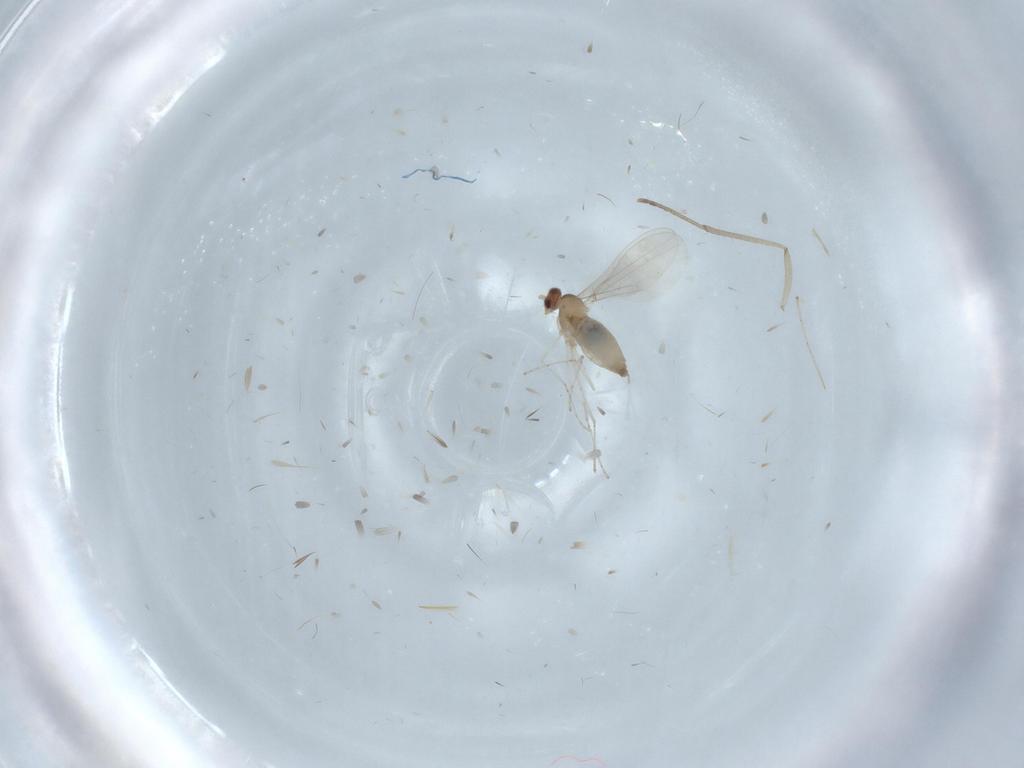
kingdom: Animalia
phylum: Arthropoda
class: Insecta
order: Diptera
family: Cecidomyiidae
